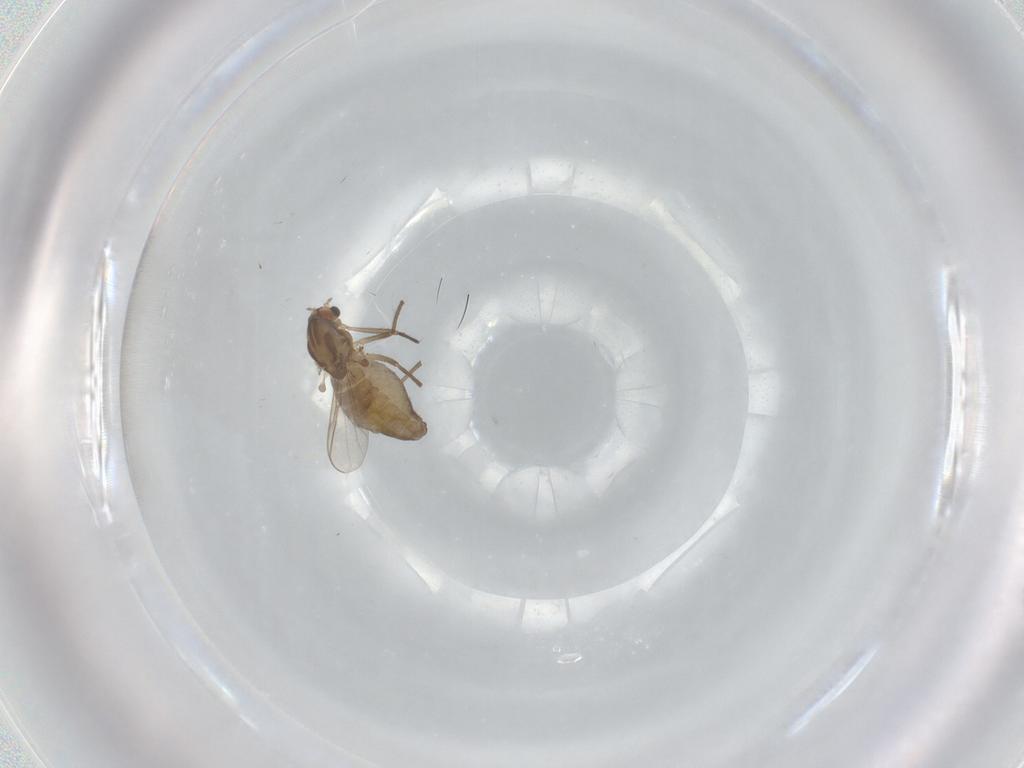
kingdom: Animalia
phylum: Arthropoda
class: Insecta
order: Diptera
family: Chironomidae
